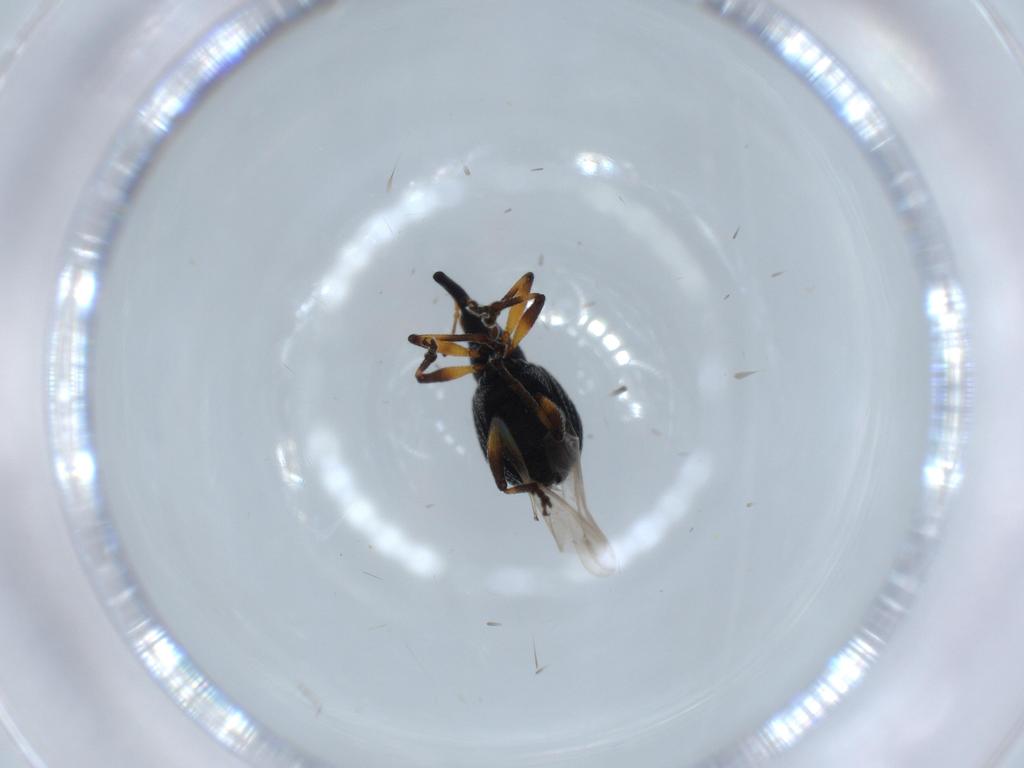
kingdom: Animalia
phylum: Arthropoda
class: Insecta
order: Coleoptera
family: Brentidae
